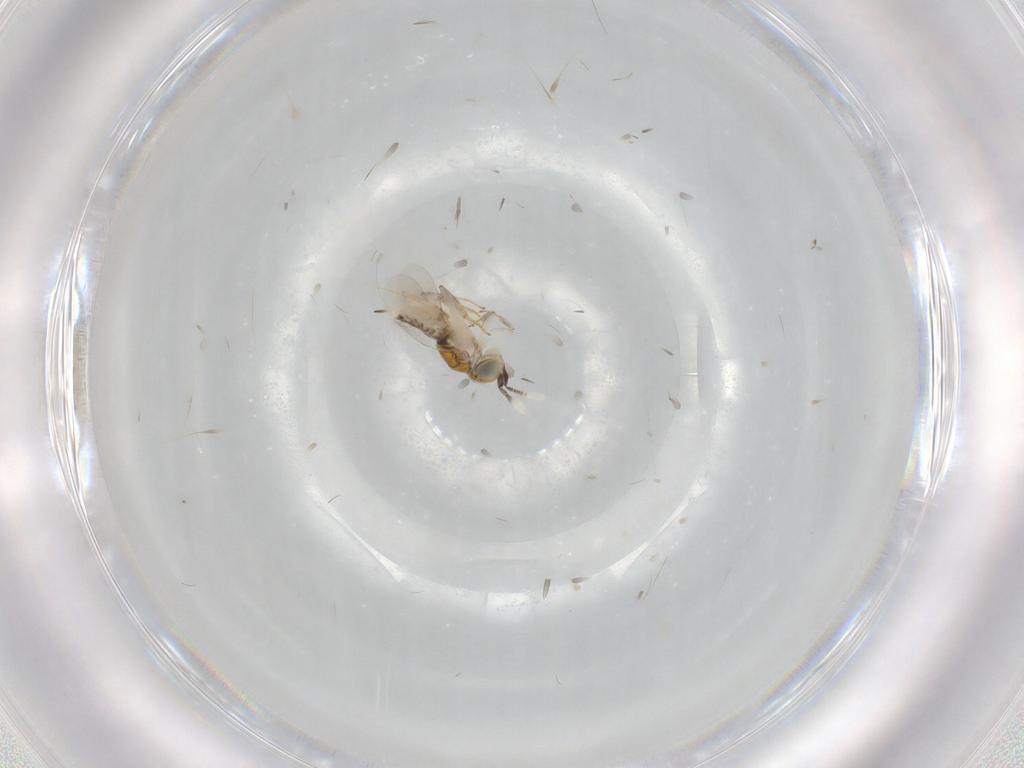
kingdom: Animalia
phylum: Arthropoda
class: Insecta
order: Hymenoptera
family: Encyrtidae
